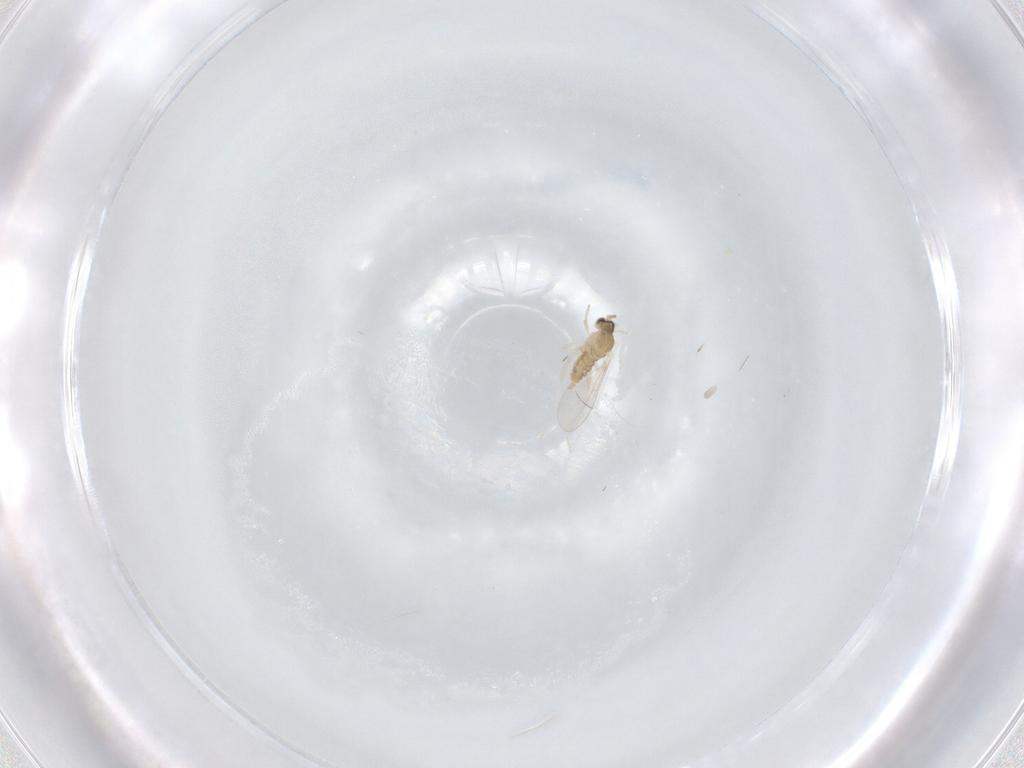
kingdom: Animalia
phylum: Arthropoda
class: Insecta
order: Diptera
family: Cecidomyiidae
